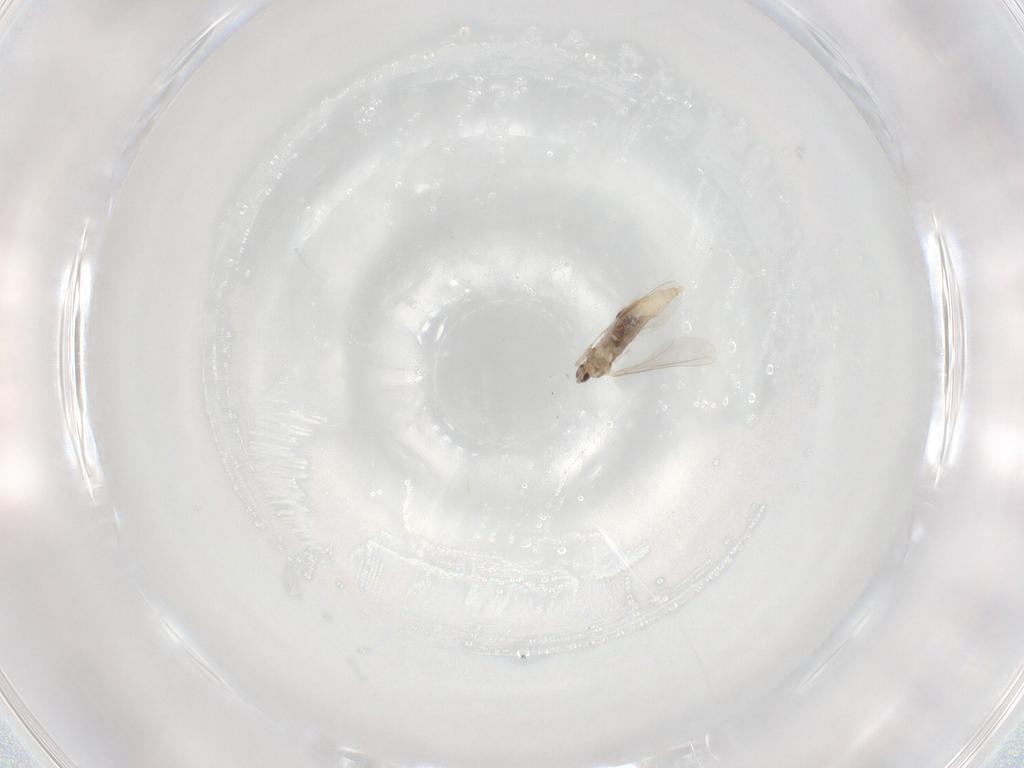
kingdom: Animalia
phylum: Arthropoda
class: Insecta
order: Diptera
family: Cecidomyiidae
